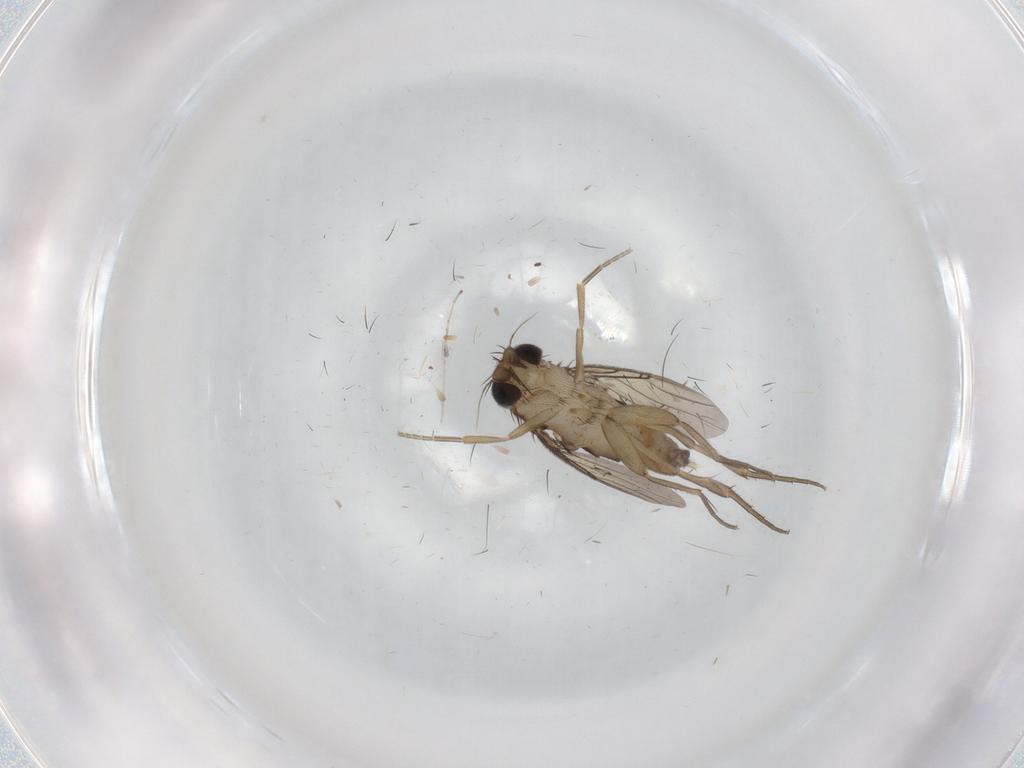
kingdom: Animalia
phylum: Arthropoda
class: Insecta
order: Diptera
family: Phoridae
